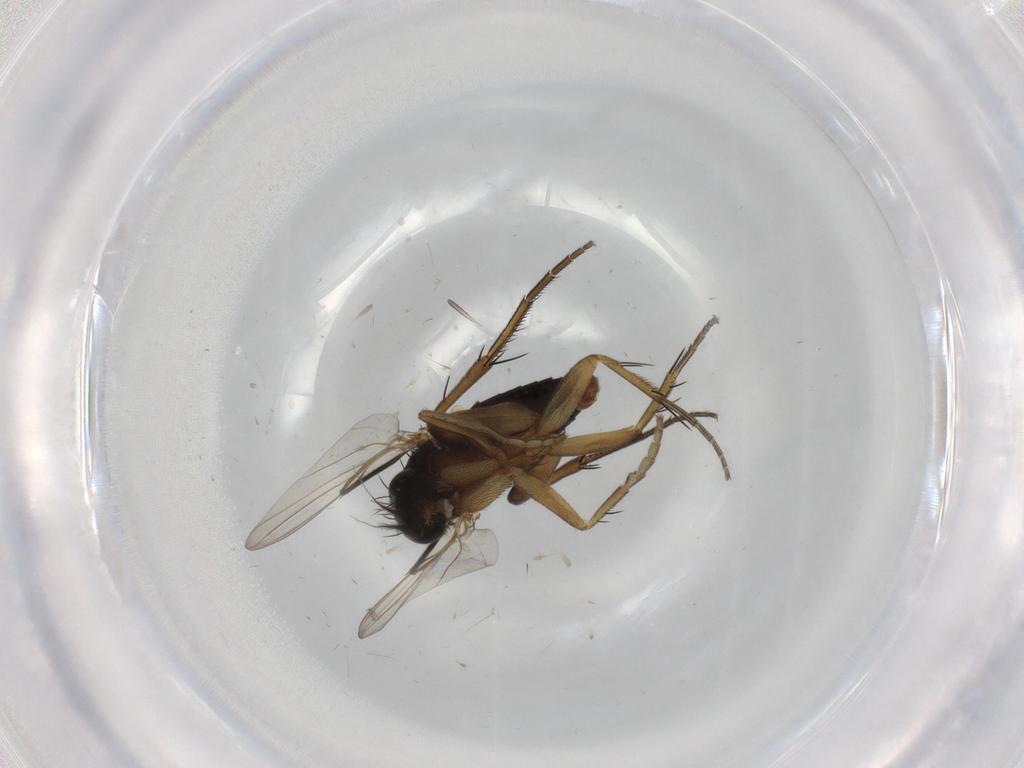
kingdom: Animalia
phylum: Arthropoda
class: Insecta
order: Diptera
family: Phoridae
